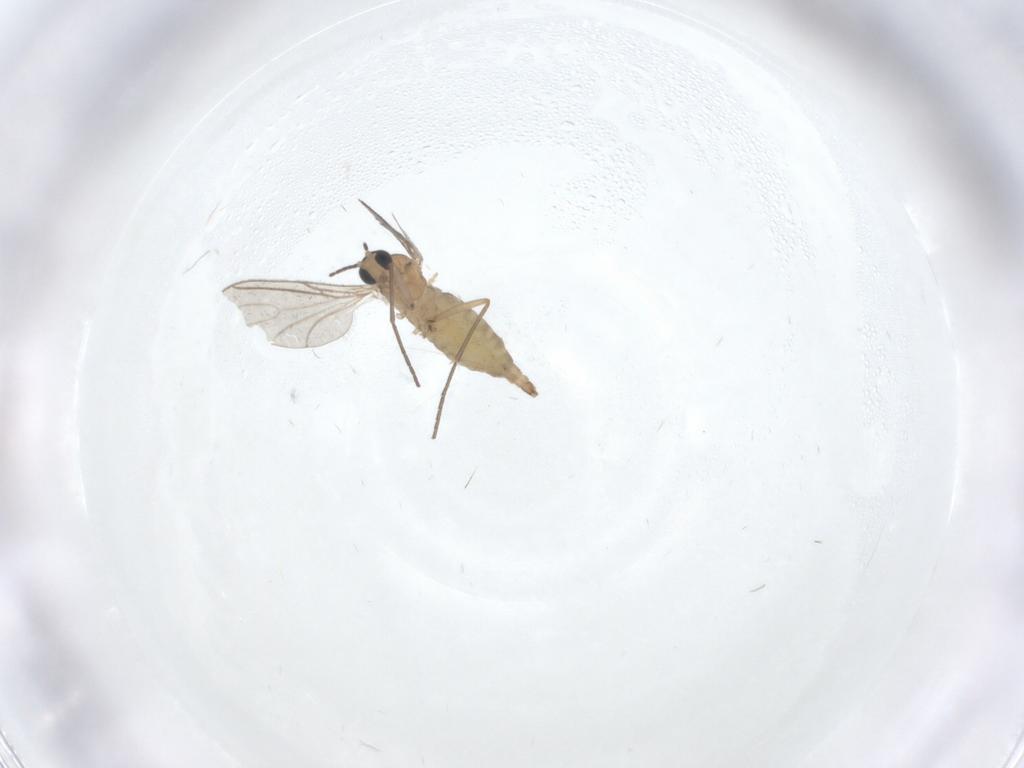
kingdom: Animalia
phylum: Arthropoda
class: Insecta
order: Diptera
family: Sciaridae
